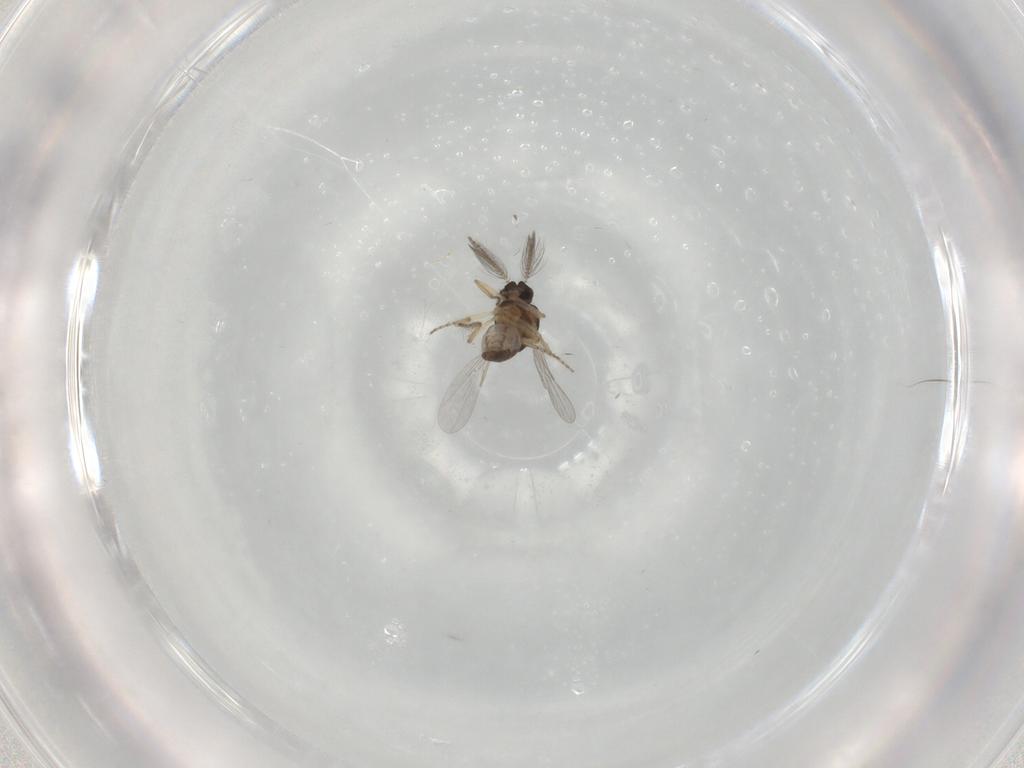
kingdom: Animalia
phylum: Arthropoda
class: Insecta
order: Diptera
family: Ceratopogonidae
